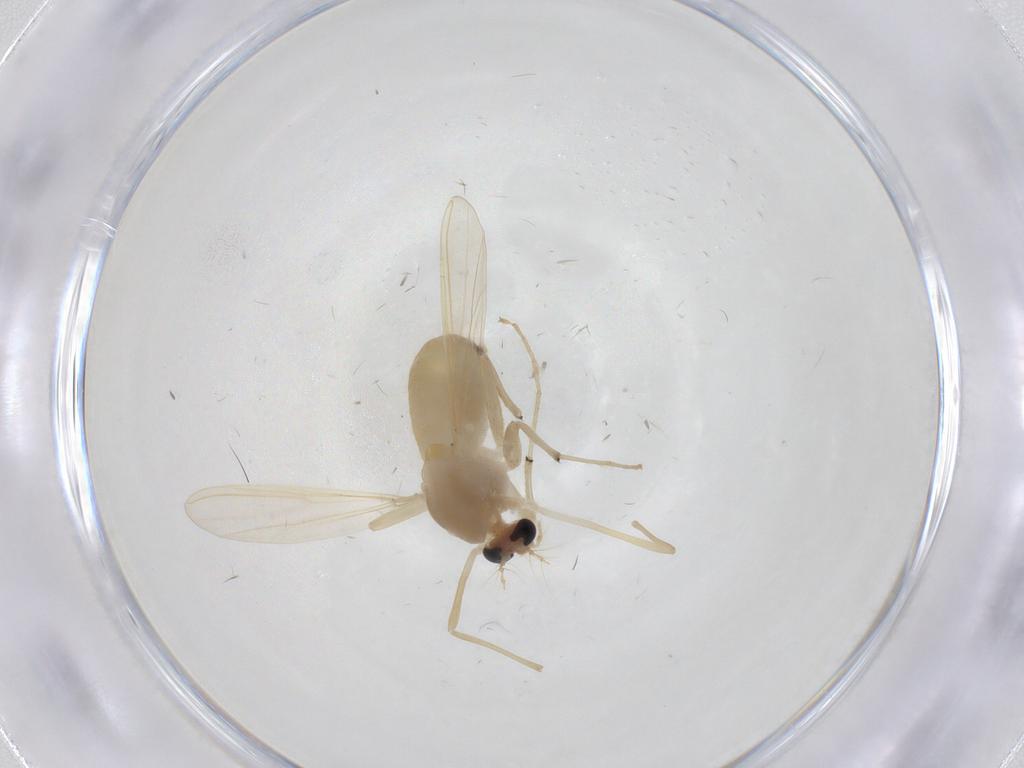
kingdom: Animalia
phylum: Arthropoda
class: Insecta
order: Diptera
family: Chironomidae
